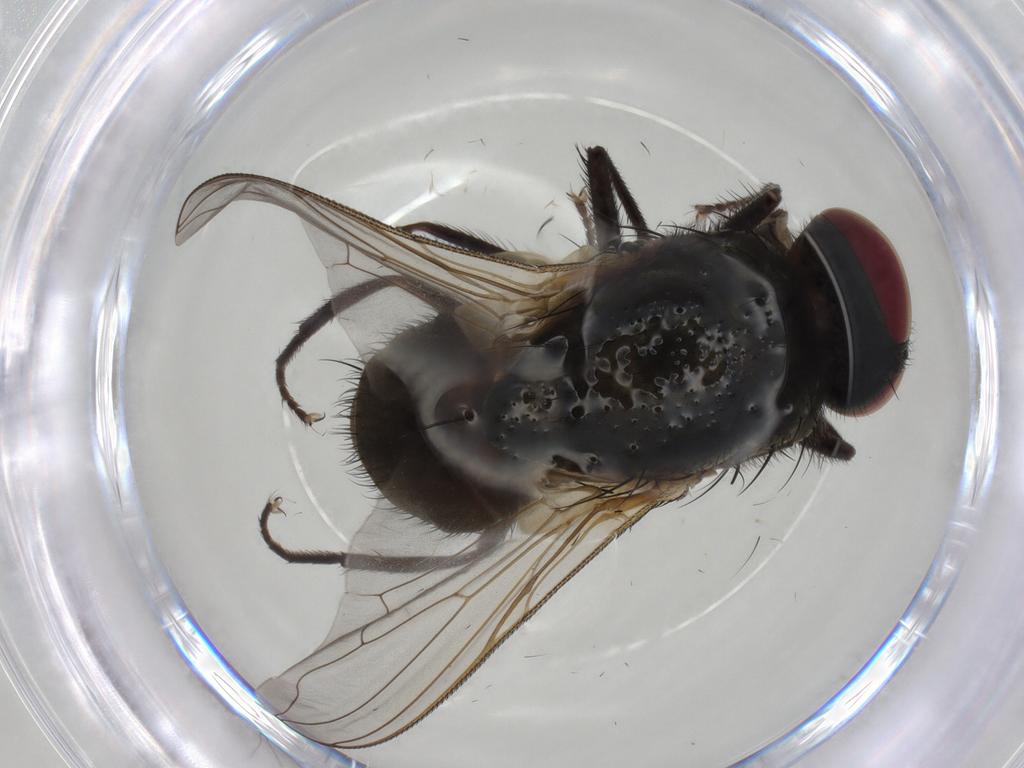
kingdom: Animalia
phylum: Arthropoda
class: Insecta
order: Diptera
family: Muscidae
